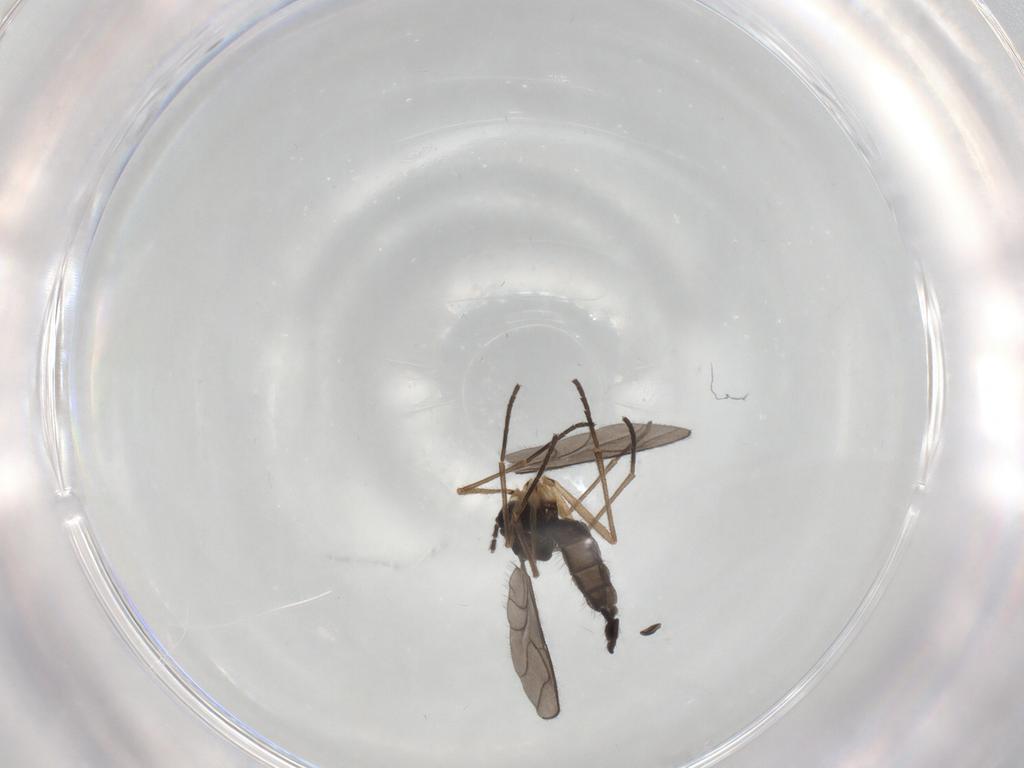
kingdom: Animalia
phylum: Arthropoda
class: Insecta
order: Diptera
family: Sciaridae
